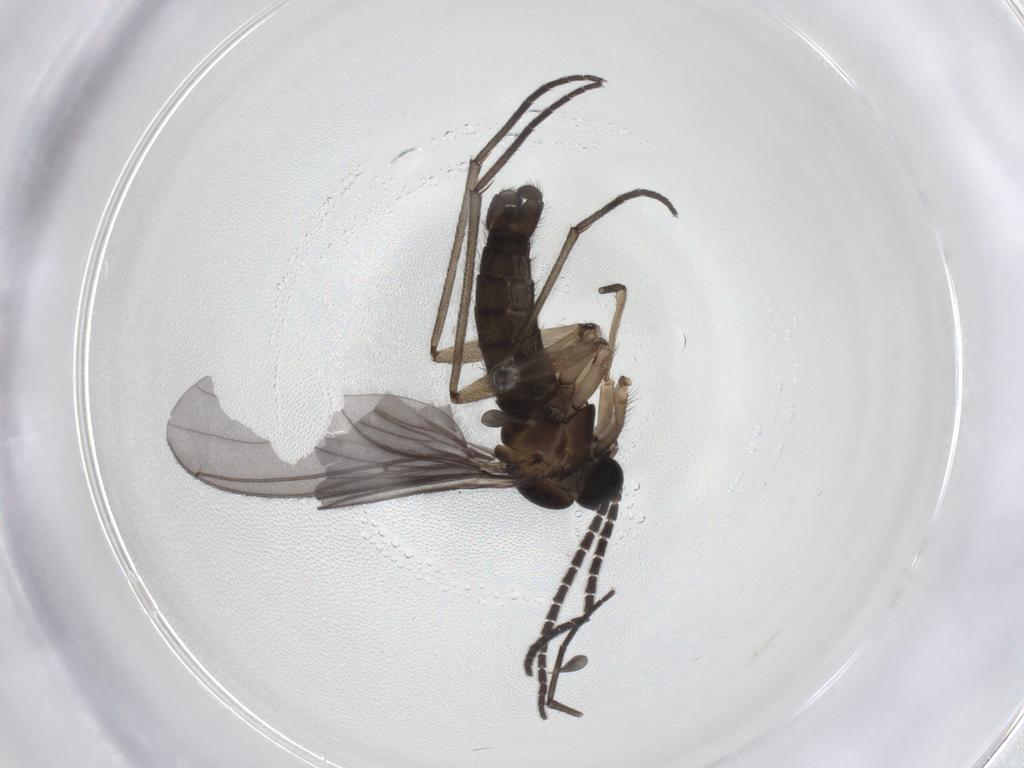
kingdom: Animalia
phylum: Arthropoda
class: Insecta
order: Diptera
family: Sciaridae
